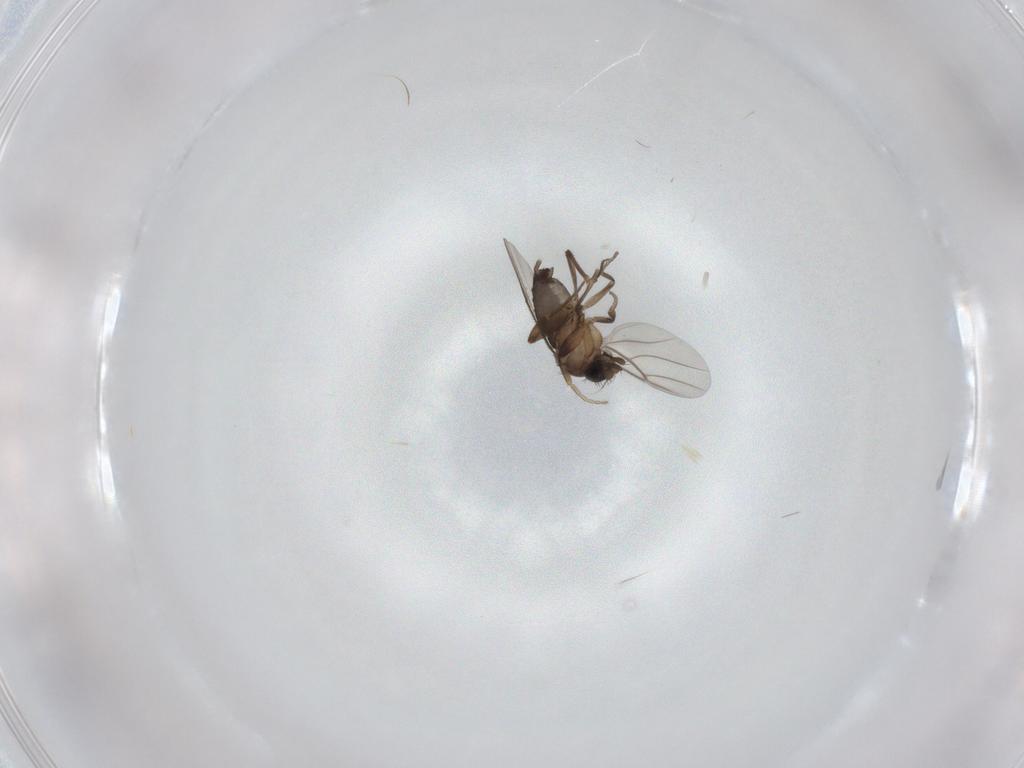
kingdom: Animalia
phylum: Arthropoda
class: Insecta
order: Diptera
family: Phoridae
